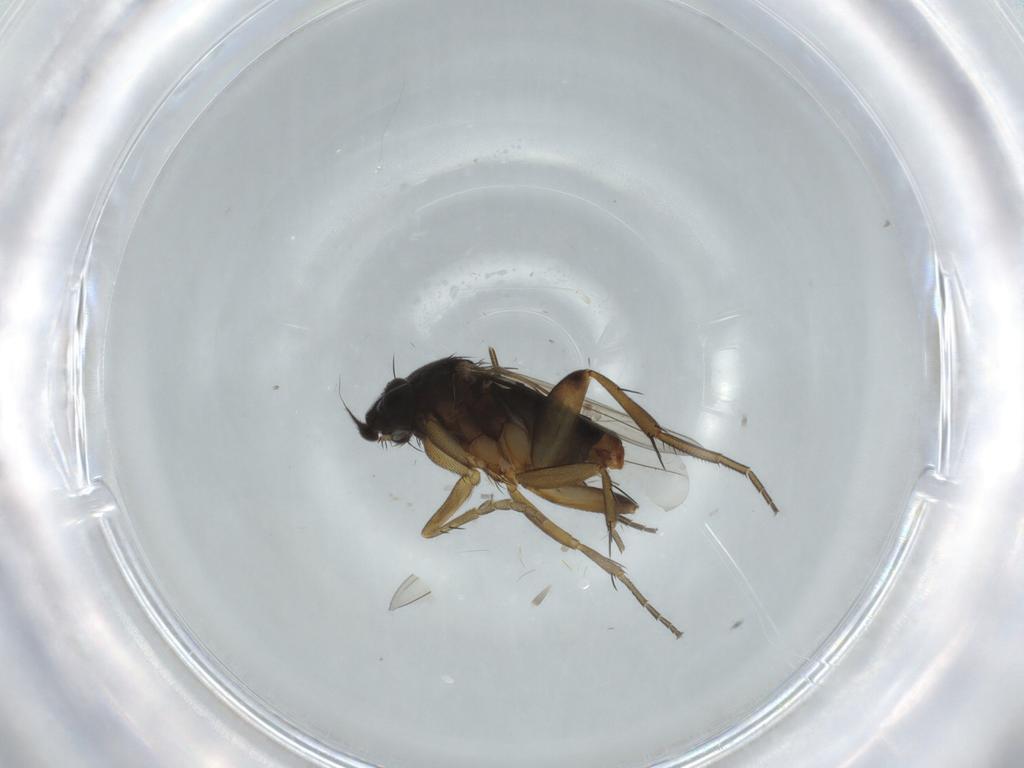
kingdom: Animalia
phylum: Arthropoda
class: Insecta
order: Diptera
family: Phoridae
